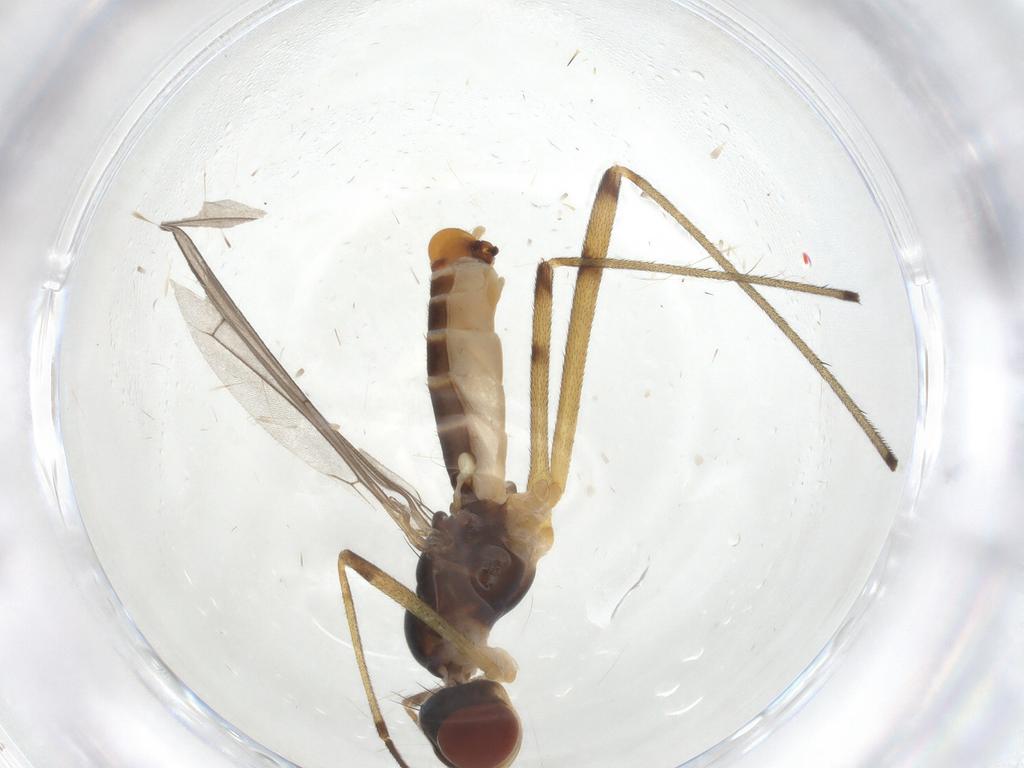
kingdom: Animalia
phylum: Arthropoda
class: Insecta
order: Diptera
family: Micropezidae
